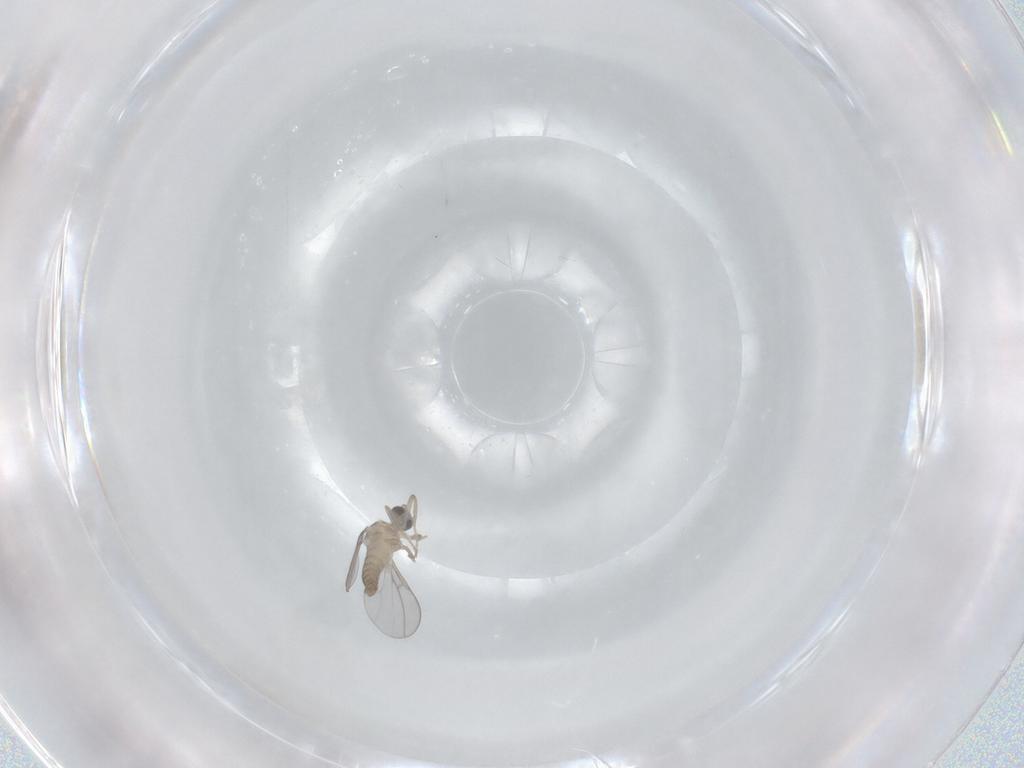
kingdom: Animalia
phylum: Arthropoda
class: Insecta
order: Diptera
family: Cecidomyiidae
